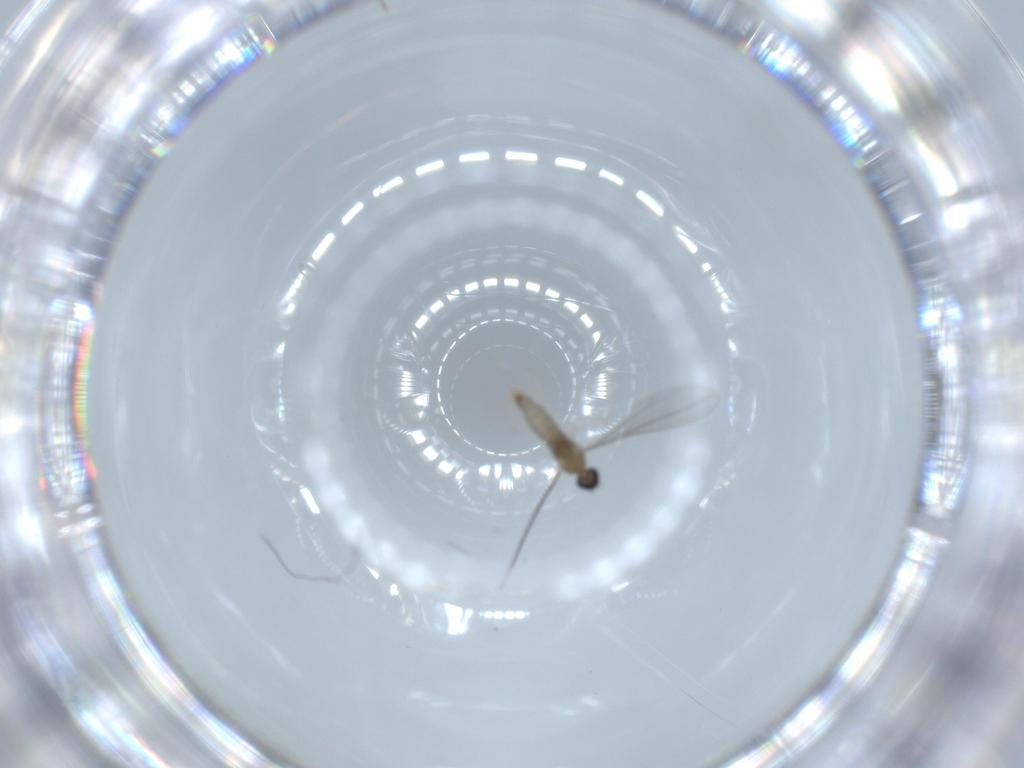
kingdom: Animalia
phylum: Arthropoda
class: Insecta
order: Diptera
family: Cecidomyiidae
